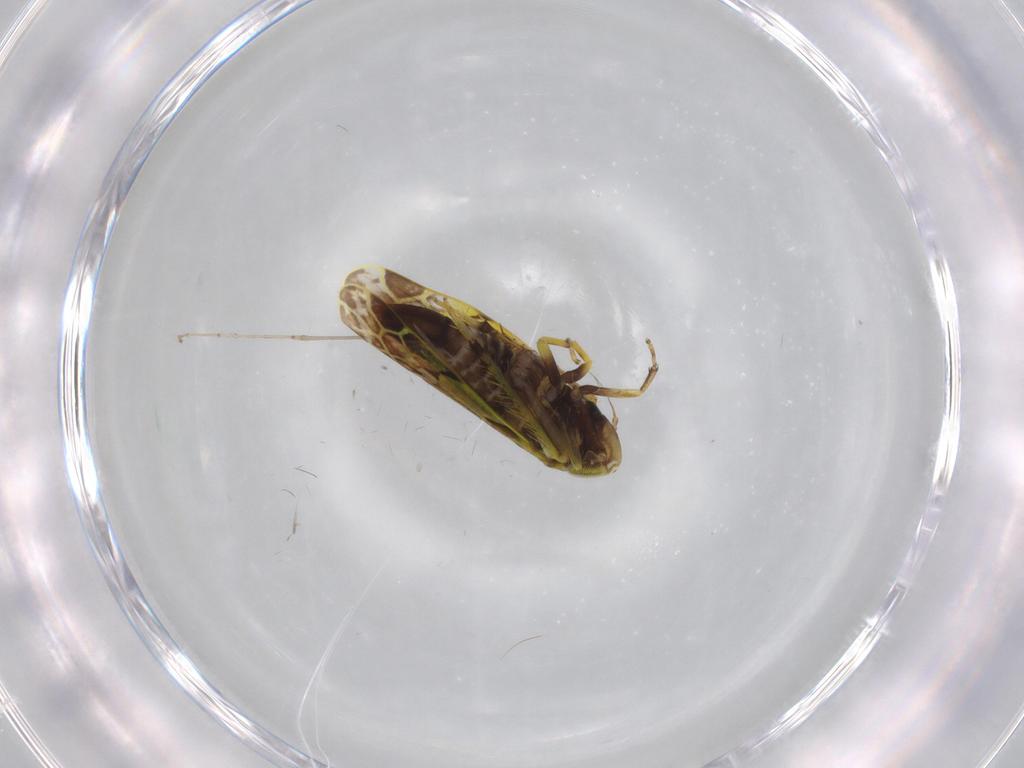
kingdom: Animalia
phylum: Arthropoda
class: Insecta
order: Hemiptera
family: Cicadellidae
